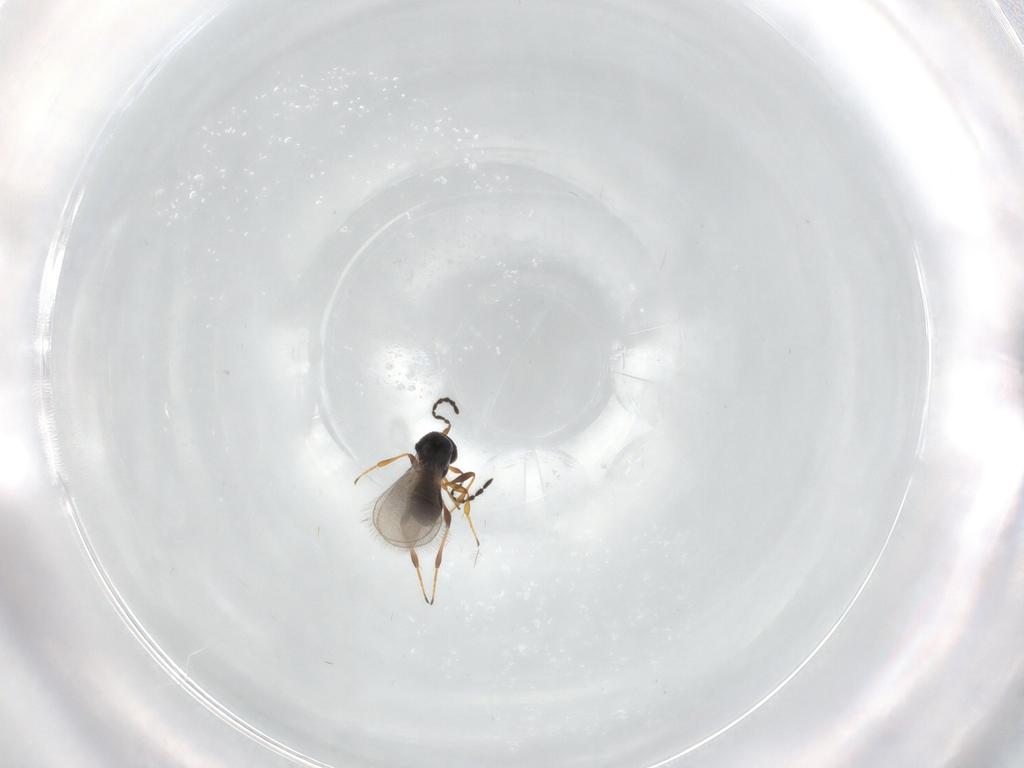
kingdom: Animalia
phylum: Arthropoda
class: Insecta
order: Hymenoptera
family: Platygastridae
